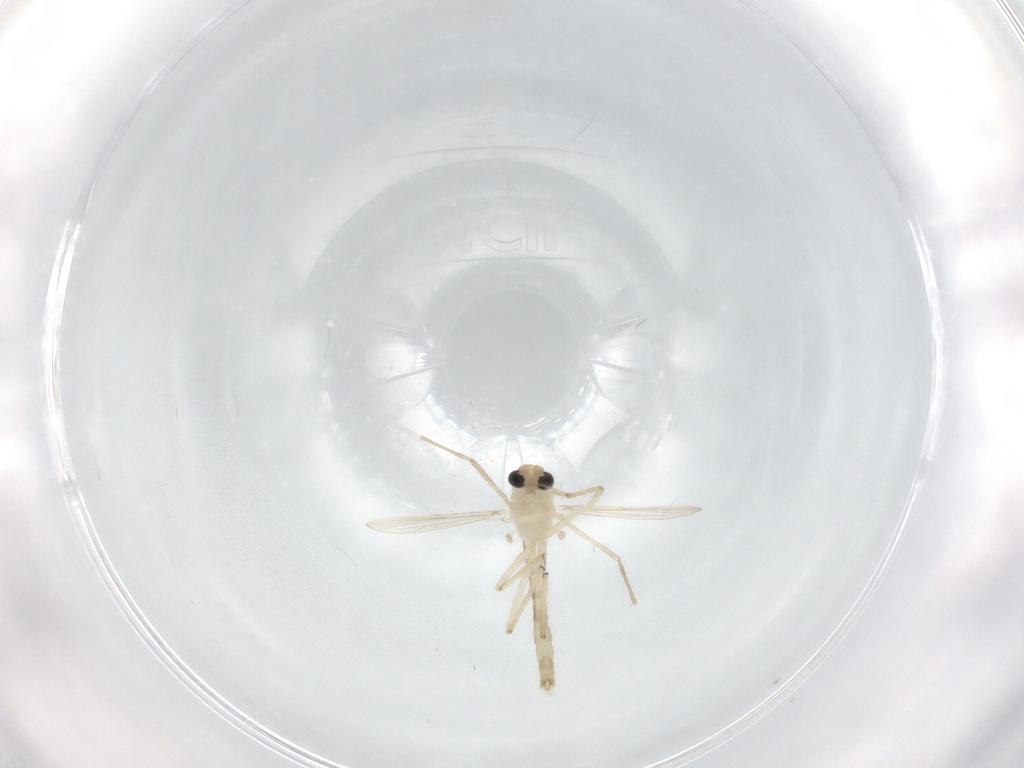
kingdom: Animalia
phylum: Arthropoda
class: Insecta
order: Diptera
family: Chironomidae
